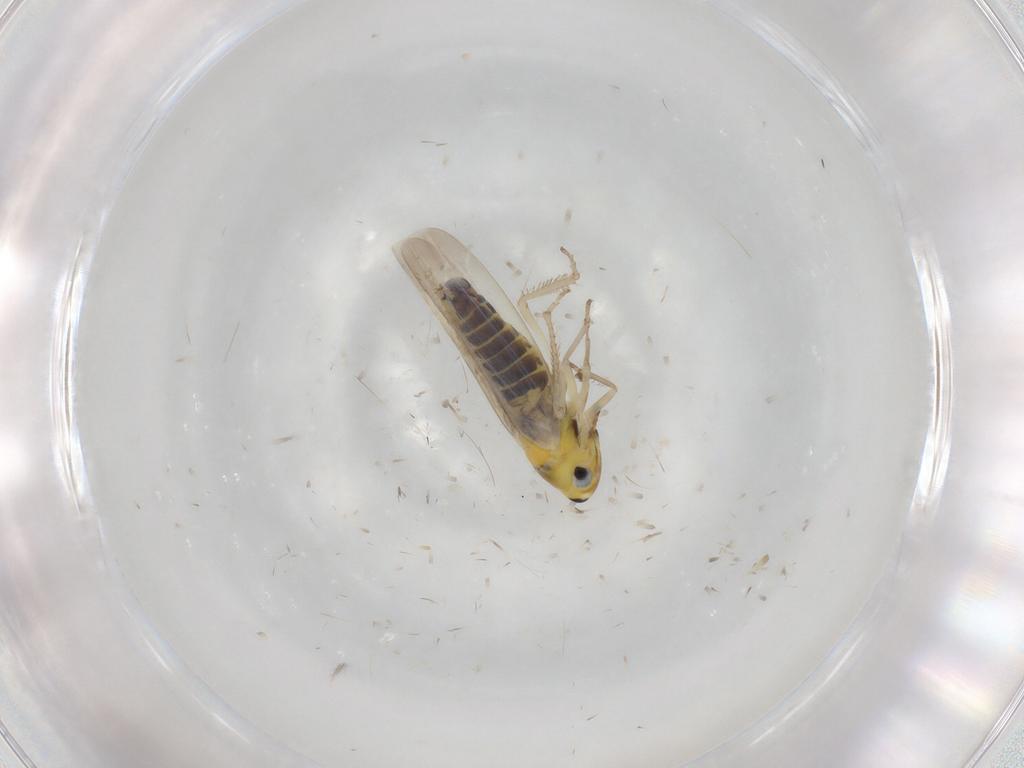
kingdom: Animalia
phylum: Arthropoda
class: Insecta
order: Hemiptera
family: Cicadellidae
